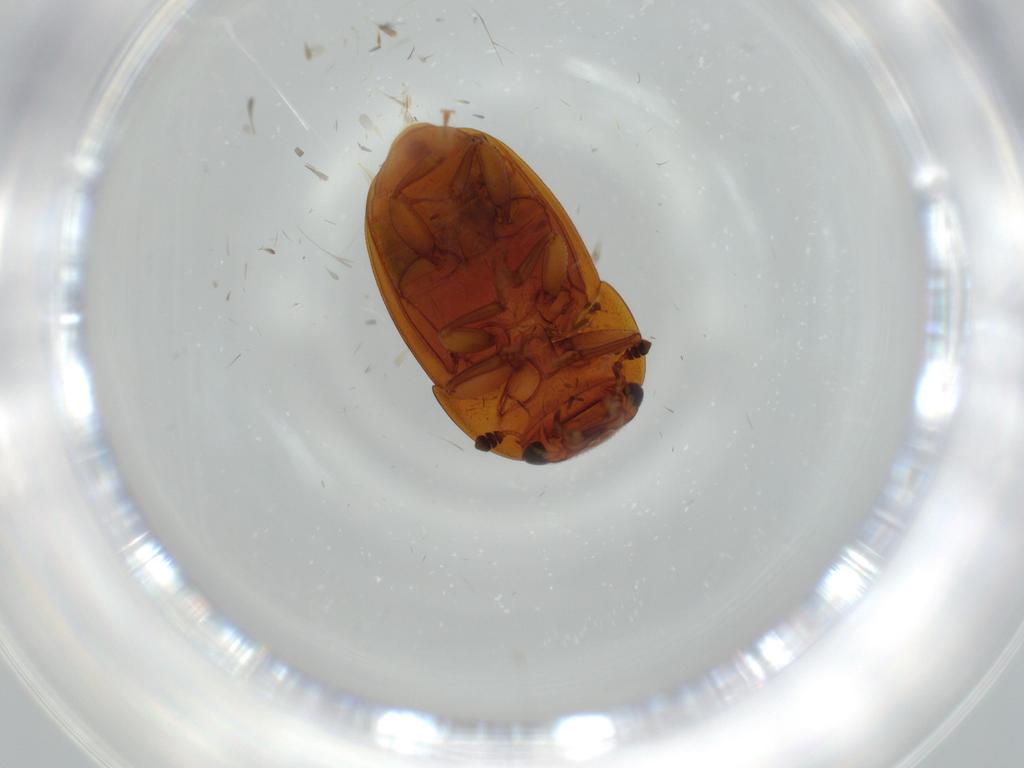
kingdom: Animalia
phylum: Arthropoda
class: Insecta
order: Coleoptera
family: Nitidulidae
